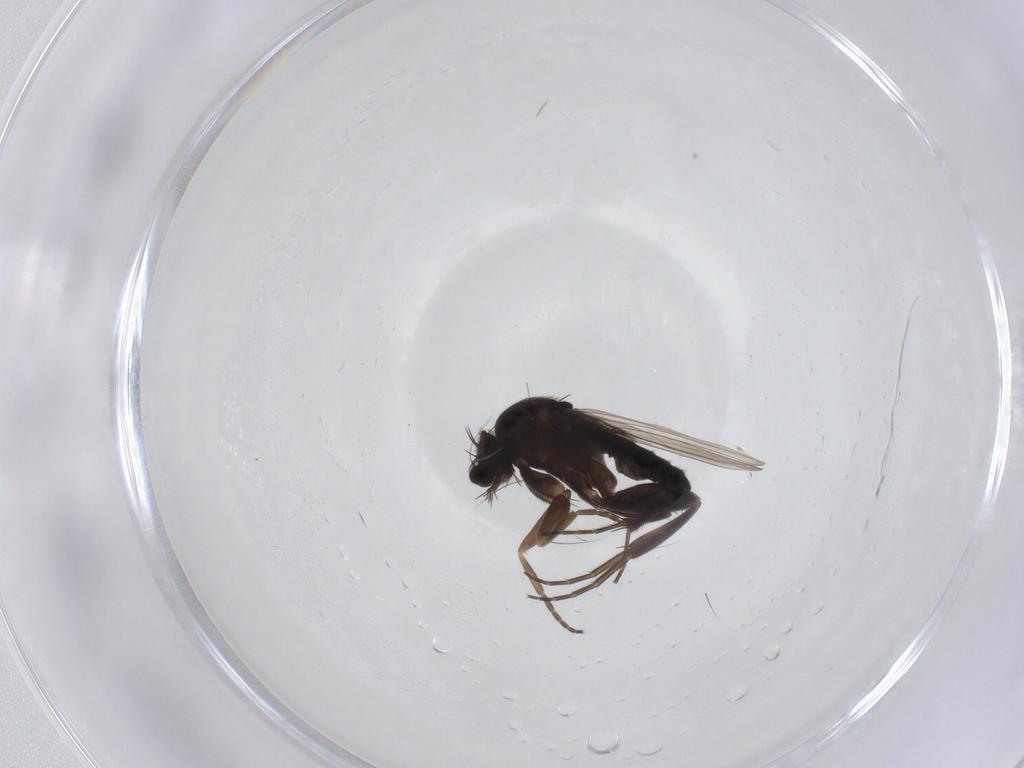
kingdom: Animalia
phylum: Arthropoda
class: Insecta
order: Diptera
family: Phoridae
